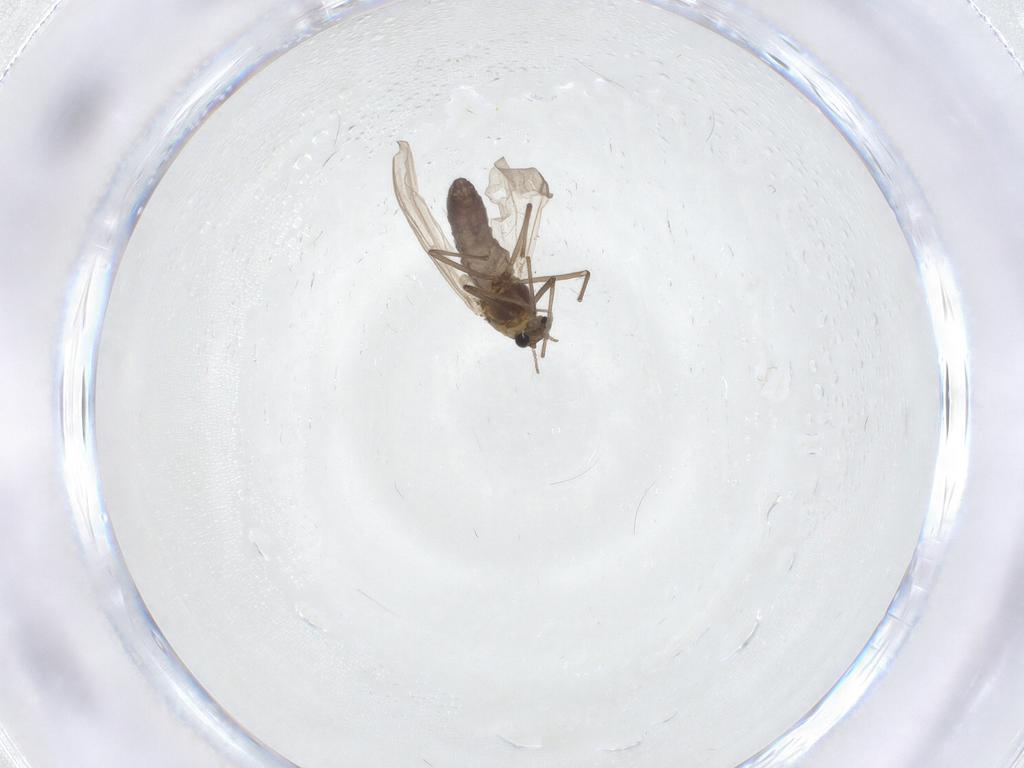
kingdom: Animalia
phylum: Arthropoda
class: Insecta
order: Diptera
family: Chironomidae
